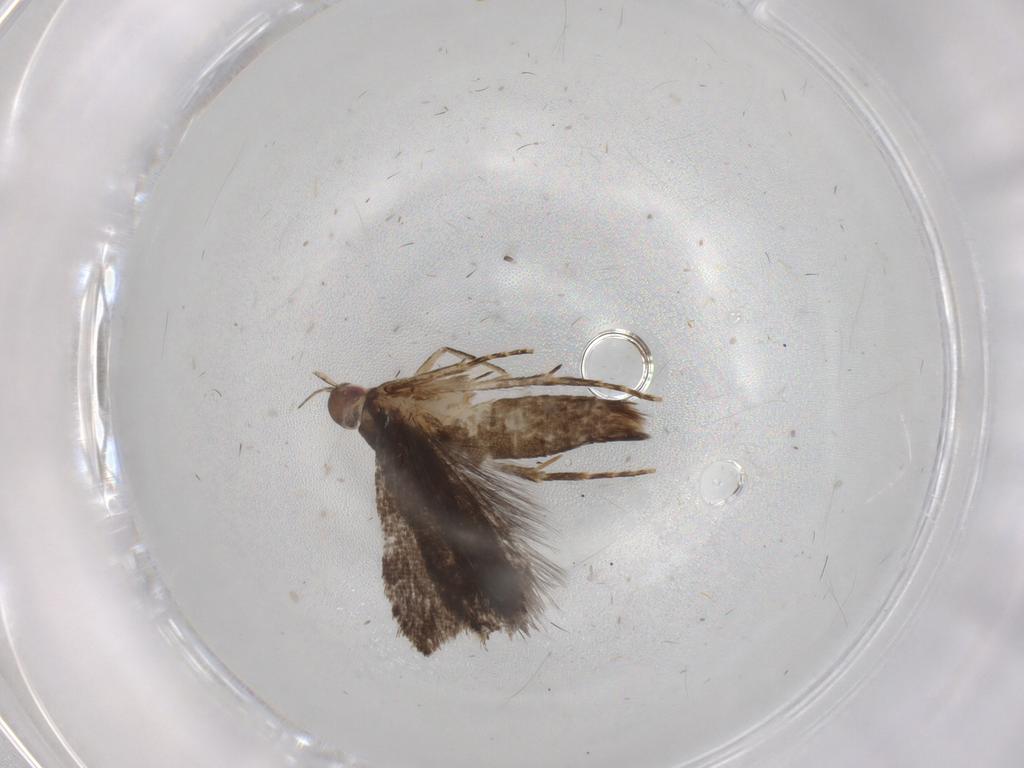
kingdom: Animalia
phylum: Arthropoda
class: Insecta
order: Lepidoptera
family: Gelechiidae
